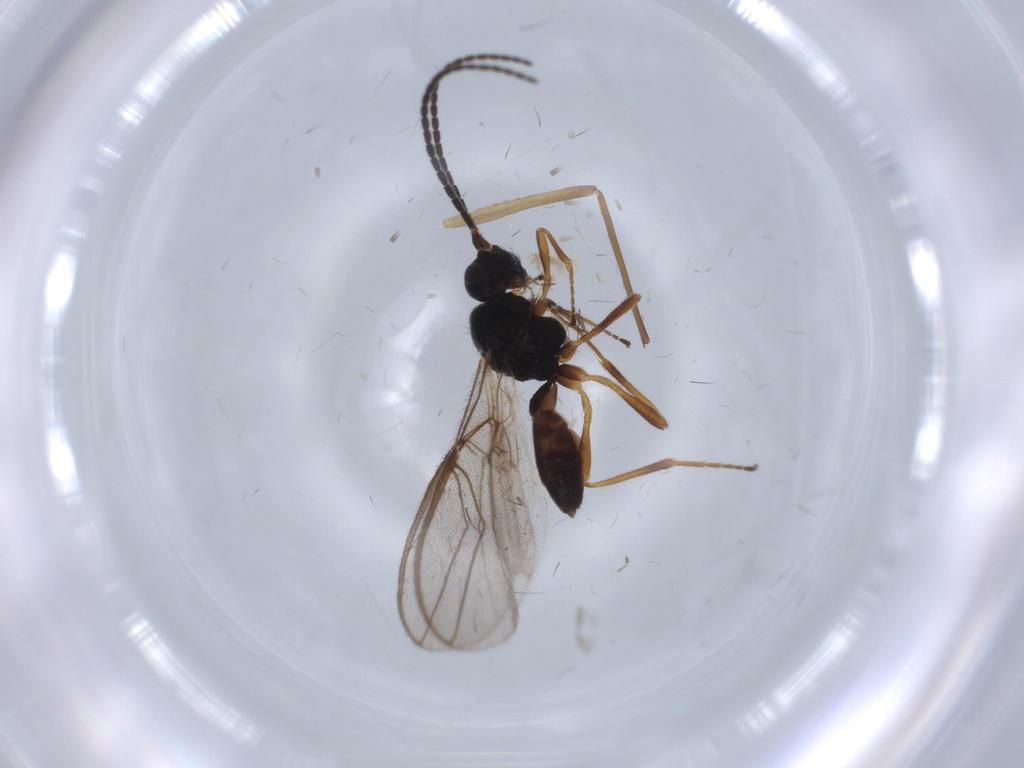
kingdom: Animalia
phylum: Arthropoda
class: Insecta
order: Hymenoptera
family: Braconidae
